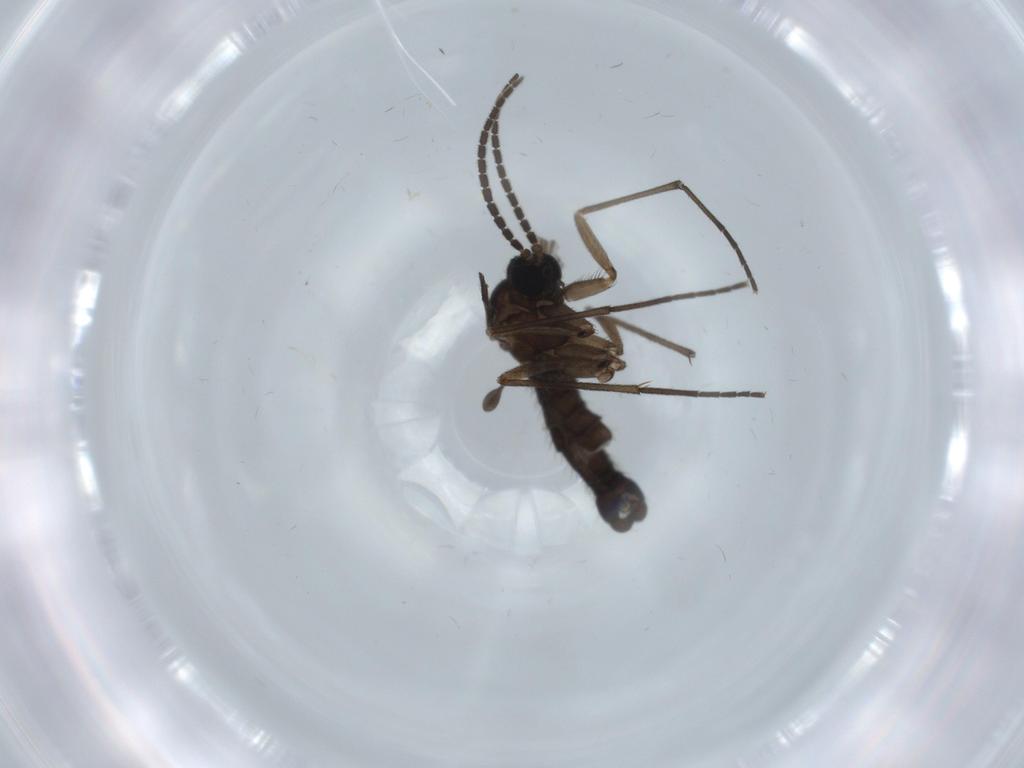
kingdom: Animalia
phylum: Arthropoda
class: Insecta
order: Diptera
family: Sciaridae
